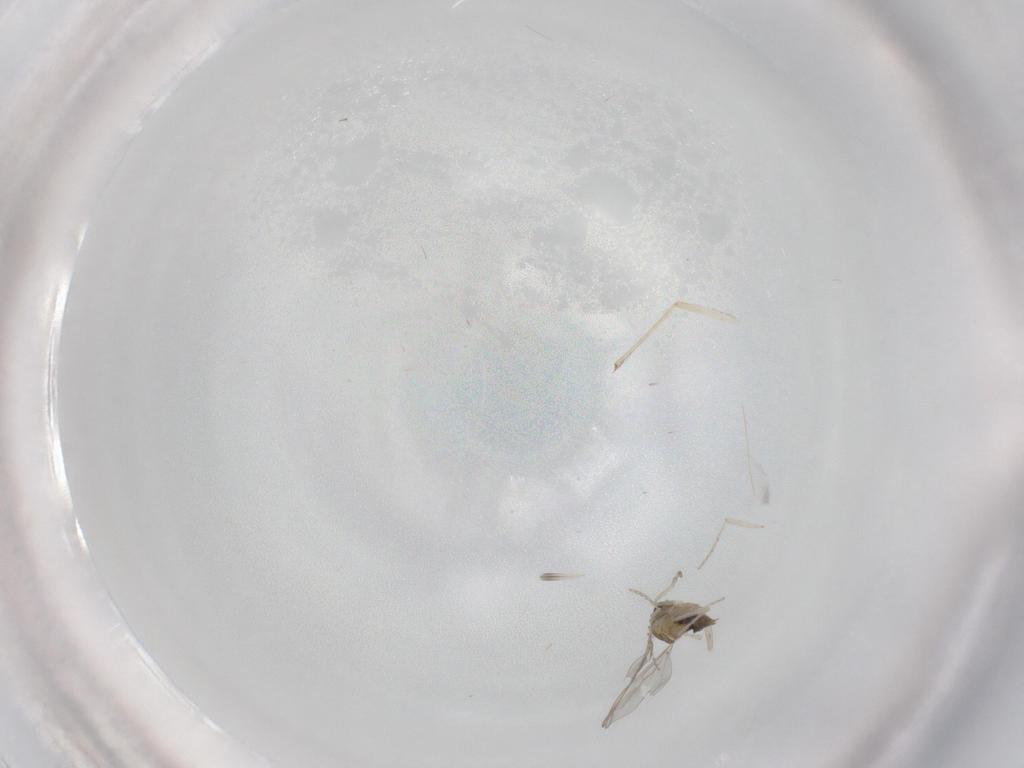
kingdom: Animalia
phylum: Arthropoda
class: Insecta
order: Diptera
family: Cecidomyiidae
